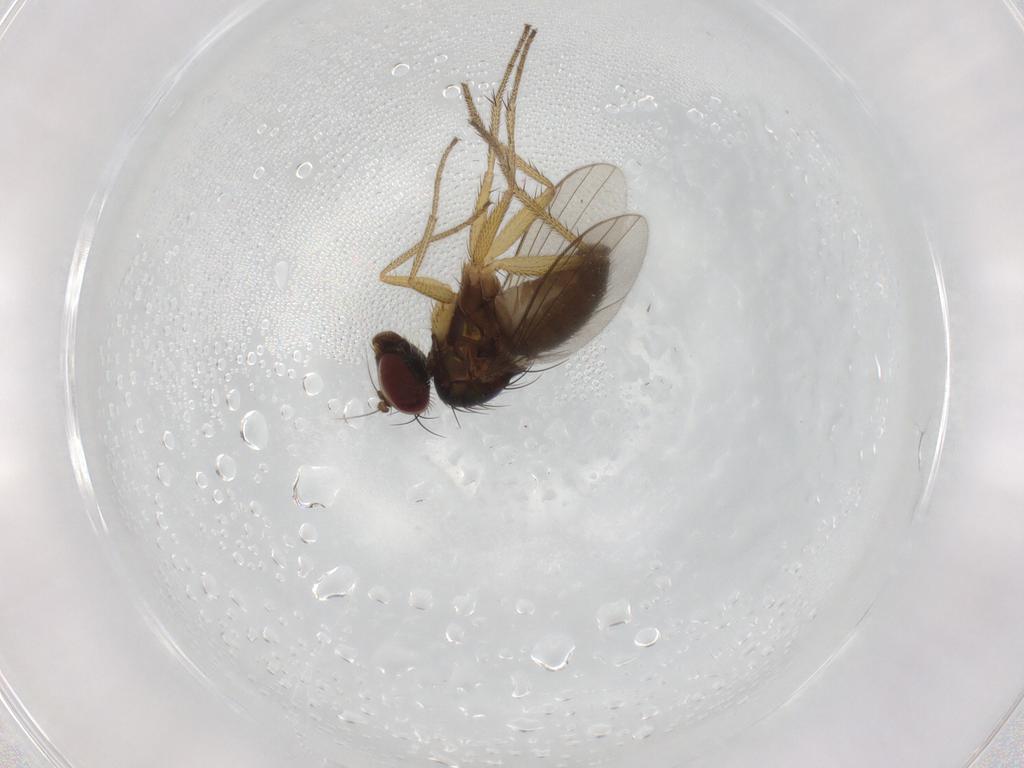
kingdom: Animalia
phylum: Arthropoda
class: Insecta
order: Diptera
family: Dolichopodidae
